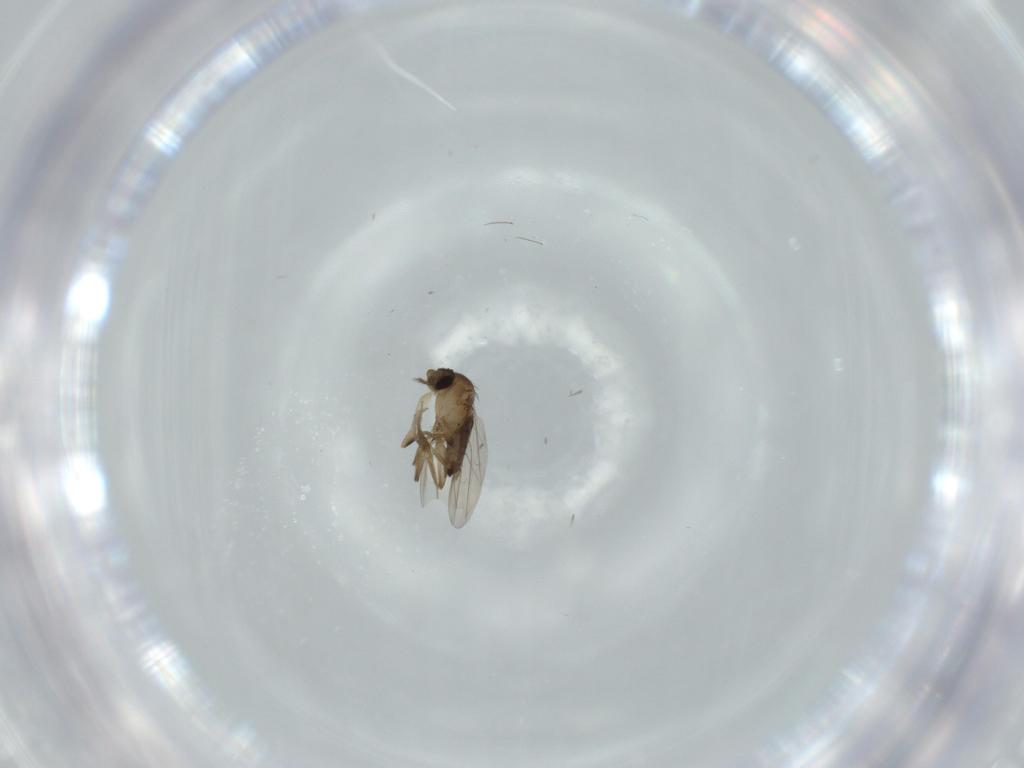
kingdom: Animalia
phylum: Arthropoda
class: Insecta
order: Diptera
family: Phoridae
